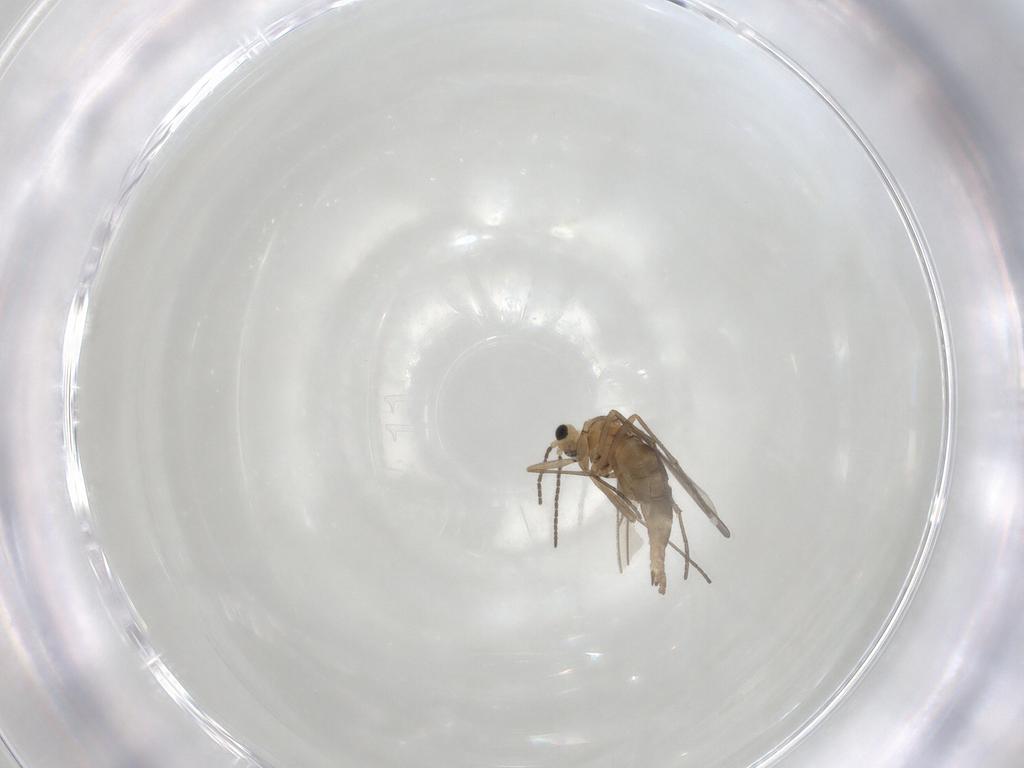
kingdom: Animalia
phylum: Arthropoda
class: Insecta
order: Diptera
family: Sciaridae
